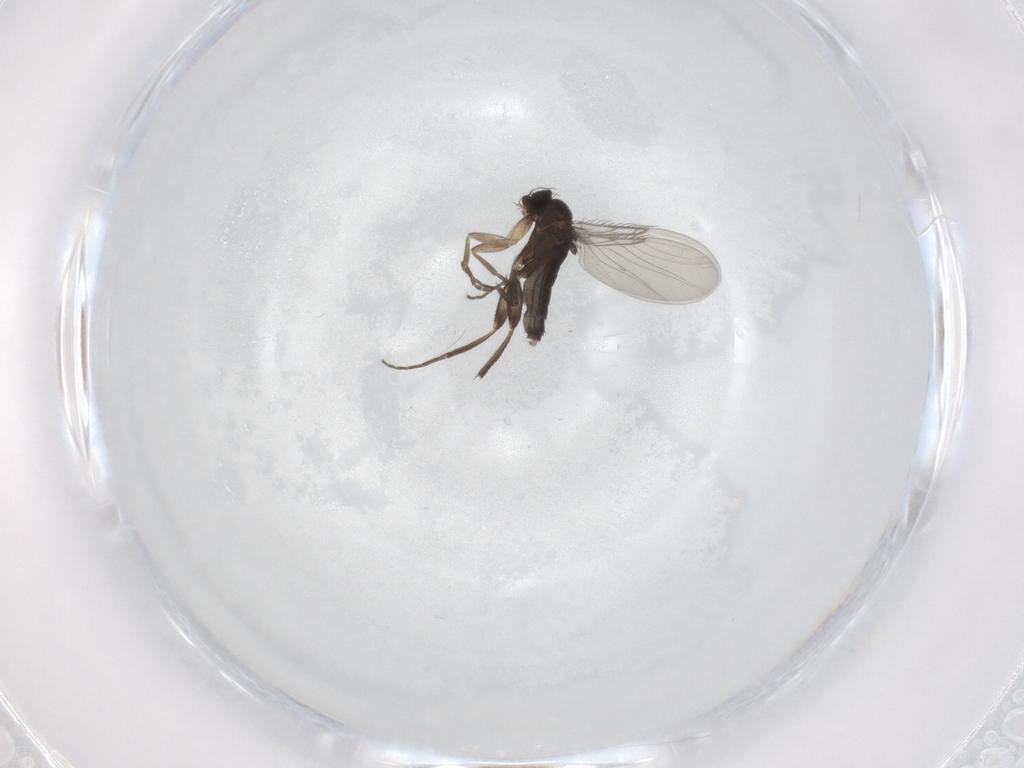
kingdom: Animalia
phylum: Arthropoda
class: Insecta
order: Diptera
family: Phoridae
